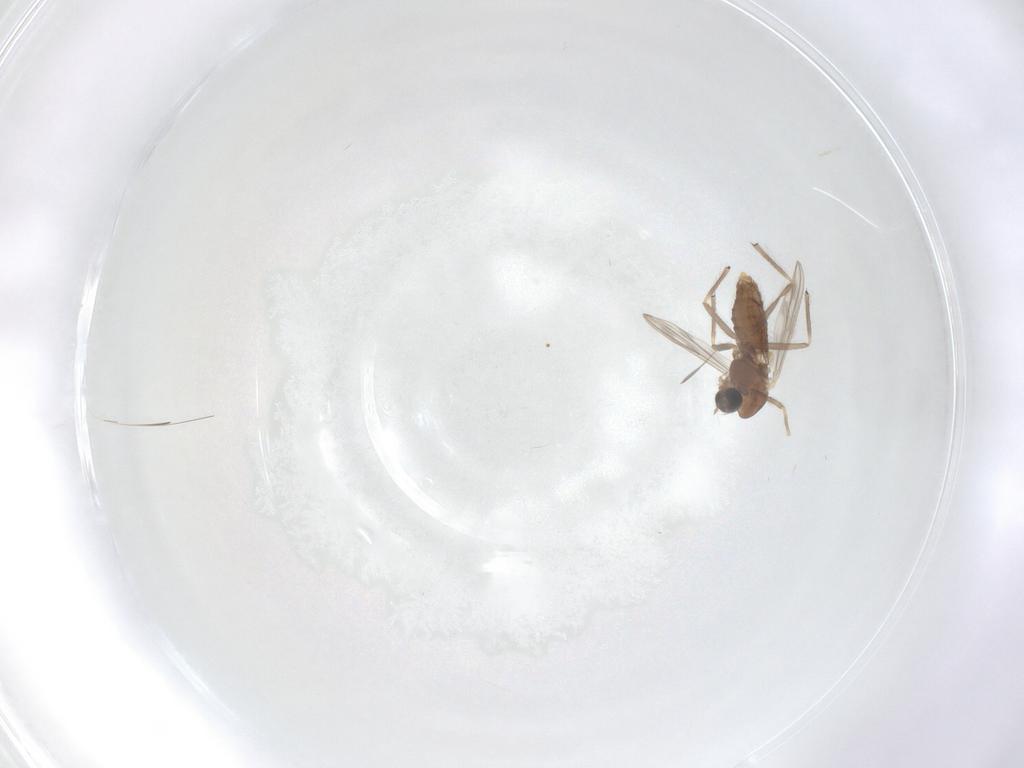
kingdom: Animalia
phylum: Arthropoda
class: Insecta
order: Diptera
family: Chironomidae
